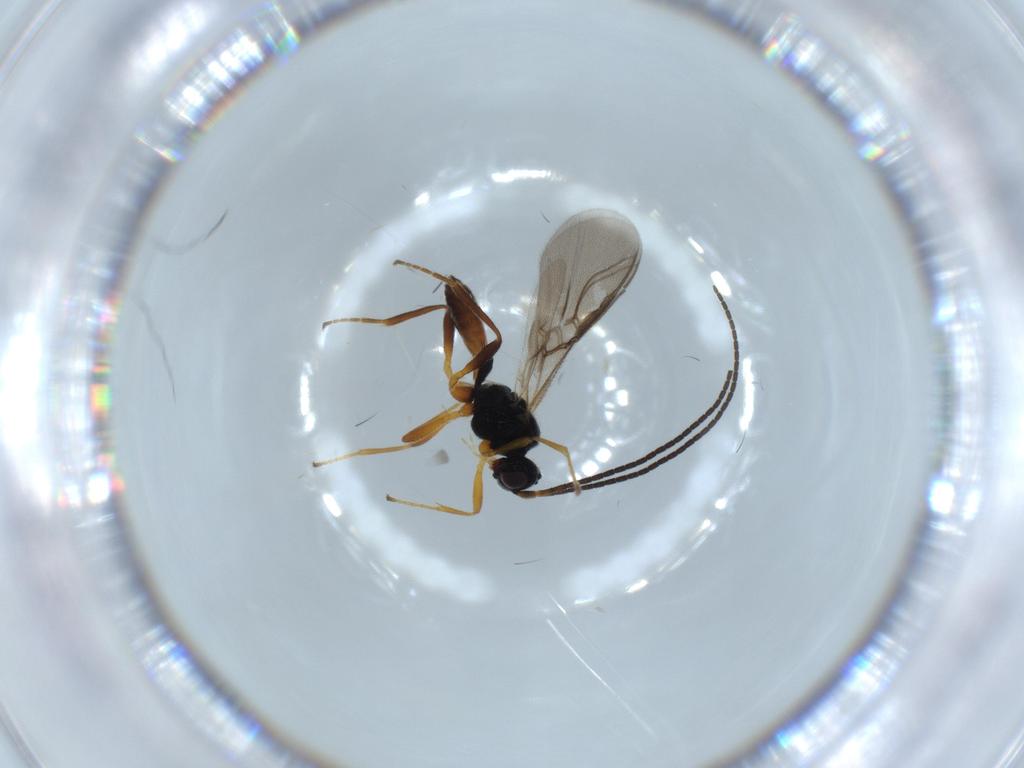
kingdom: Animalia
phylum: Arthropoda
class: Insecta
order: Hymenoptera
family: Braconidae
